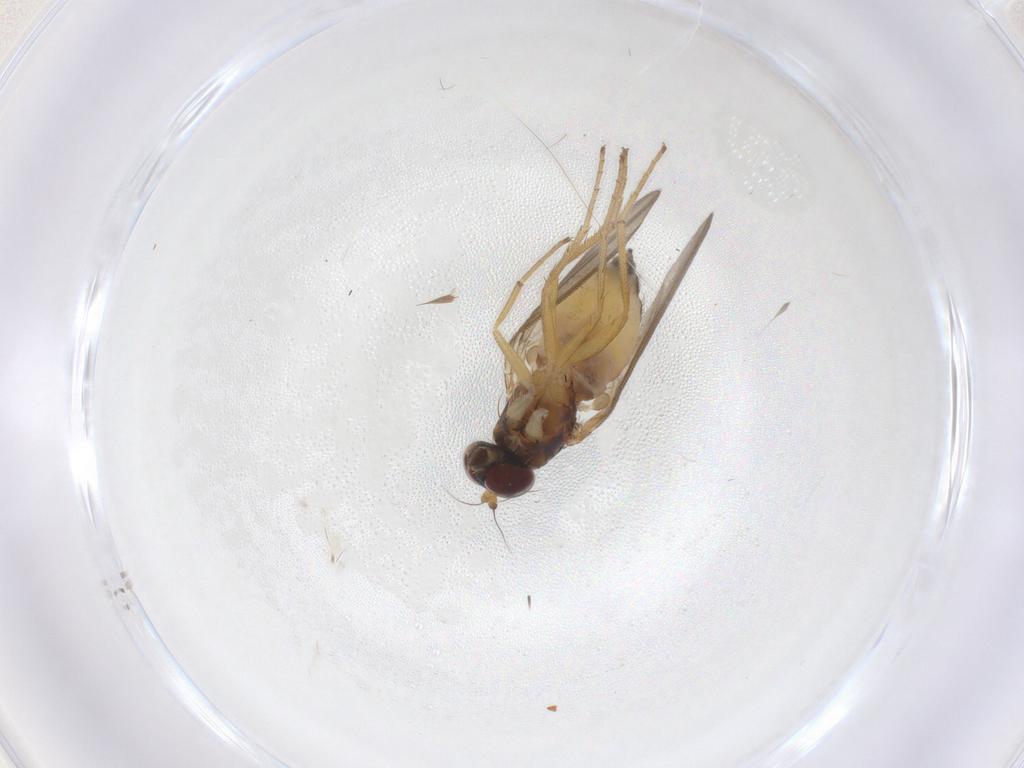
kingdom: Animalia
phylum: Arthropoda
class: Insecta
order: Diptera
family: Dolichopodidae
